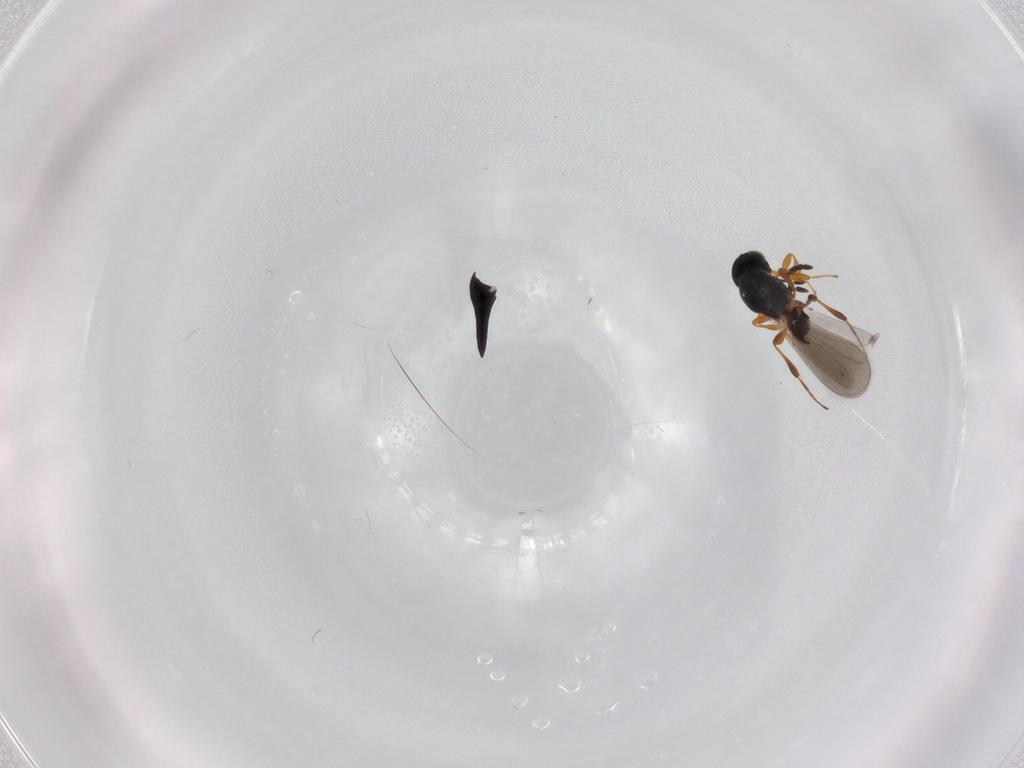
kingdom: Animalia
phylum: Arthropoda
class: Insecta
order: Hymenoptera
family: Platygastridae
